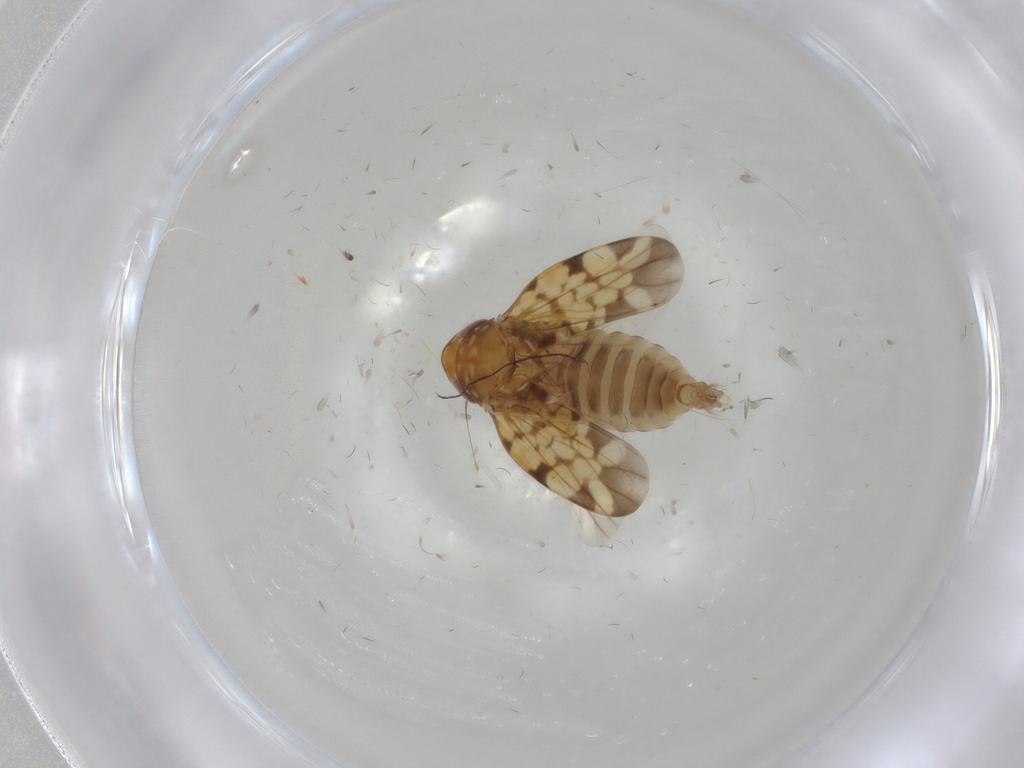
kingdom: Animalia
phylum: Arthropoda
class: Insecta
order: Hemiptera
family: Cicadellidae
